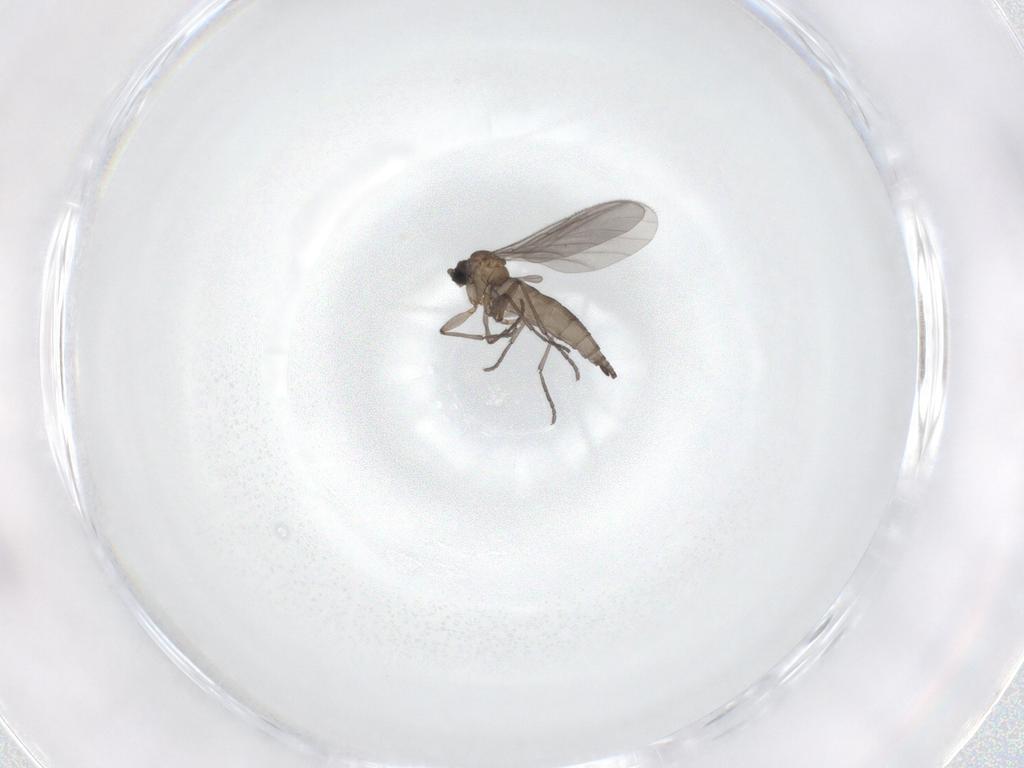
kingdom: Animalia
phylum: Arthropoda
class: Insecta
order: Diptera
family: Sciaridae
